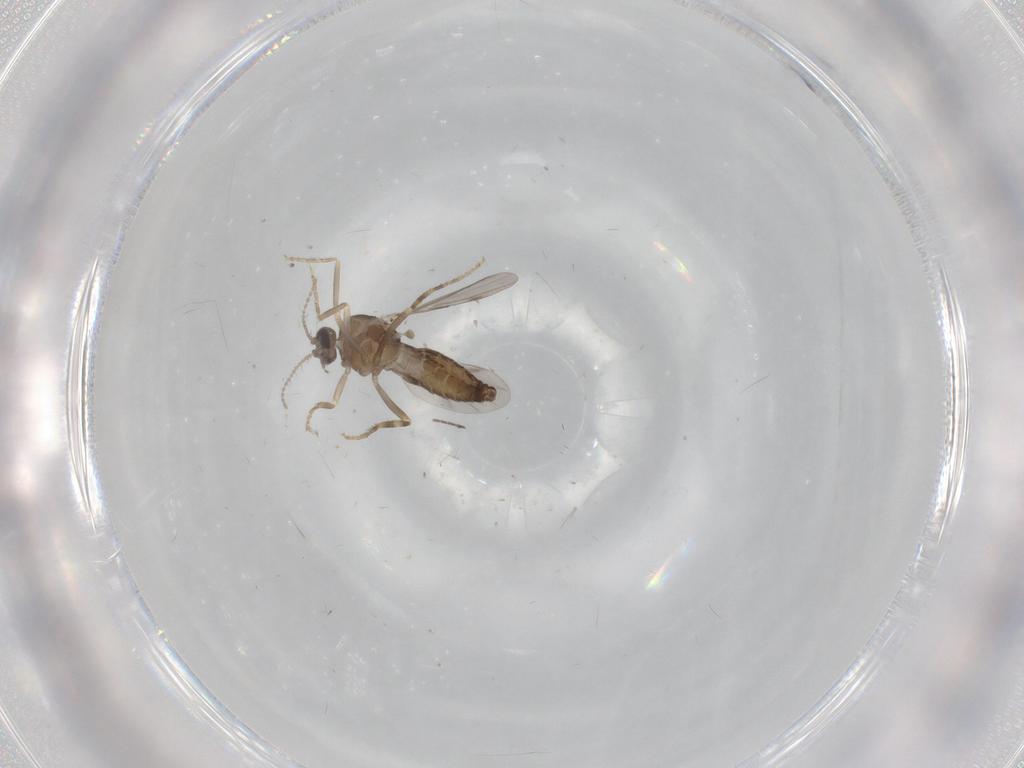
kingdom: Animalia
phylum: Arthropoda
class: Insecta
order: Diptera
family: Ceratopogonidae
